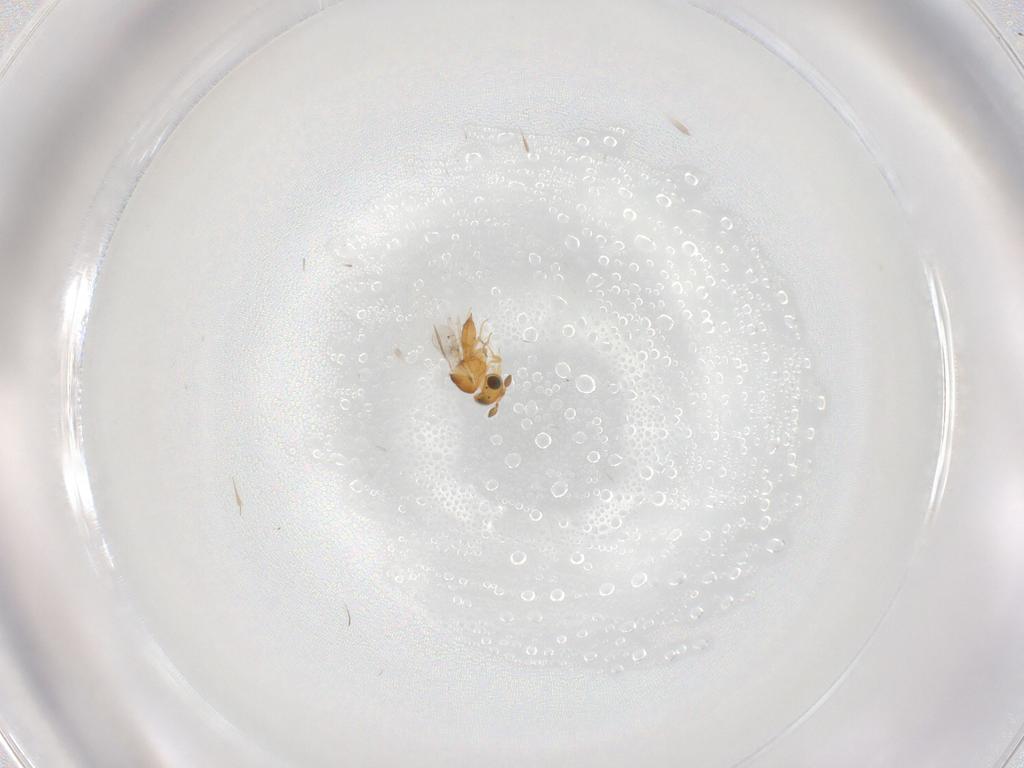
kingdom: Animalia
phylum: Arthropoda
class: Insecta
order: Hymenoptera
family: Scelionidae
